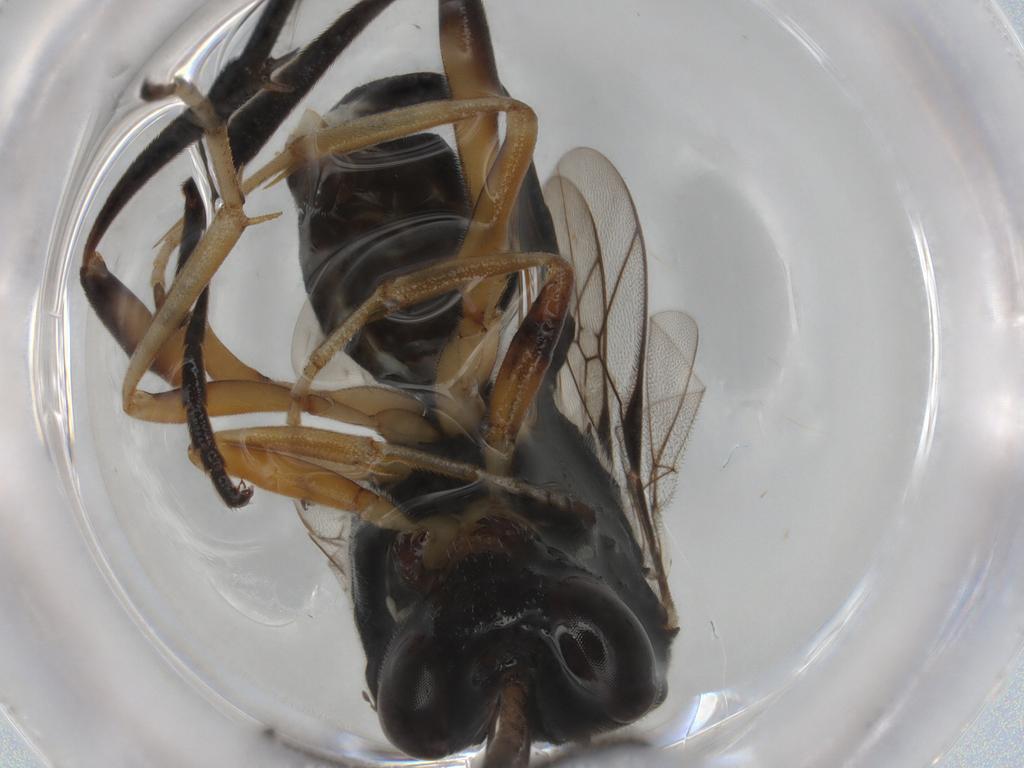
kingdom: Animalia
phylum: Arthropoda
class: Insecta
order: Hymenoptera
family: Ichneumonidae
